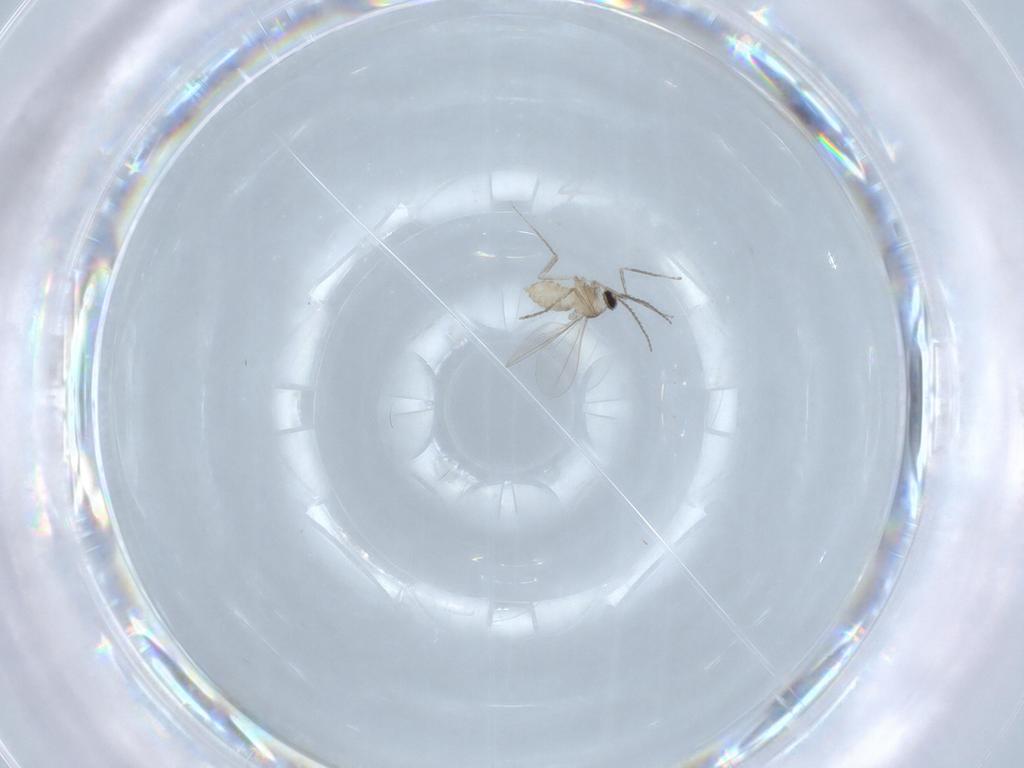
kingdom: Animalia
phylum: Arthropoda
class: Insecta
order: Diptera
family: Cecidomyiidae
